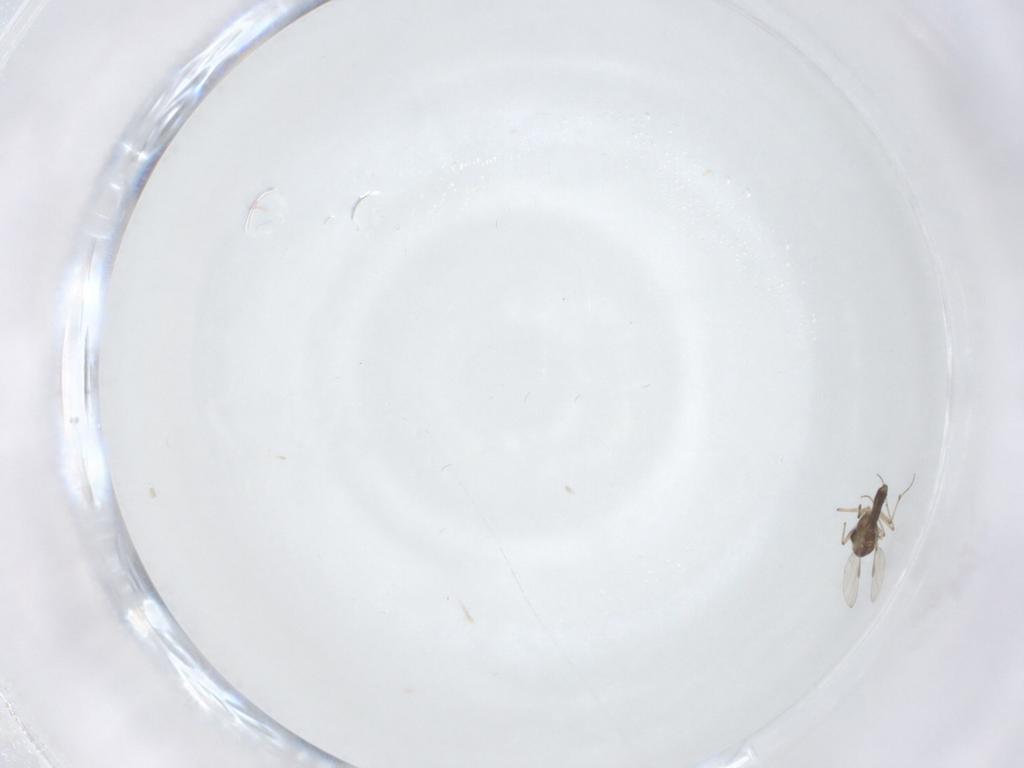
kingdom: Animalia
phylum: Arthropoda
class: Insecta
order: Diptera
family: Chironomidae
